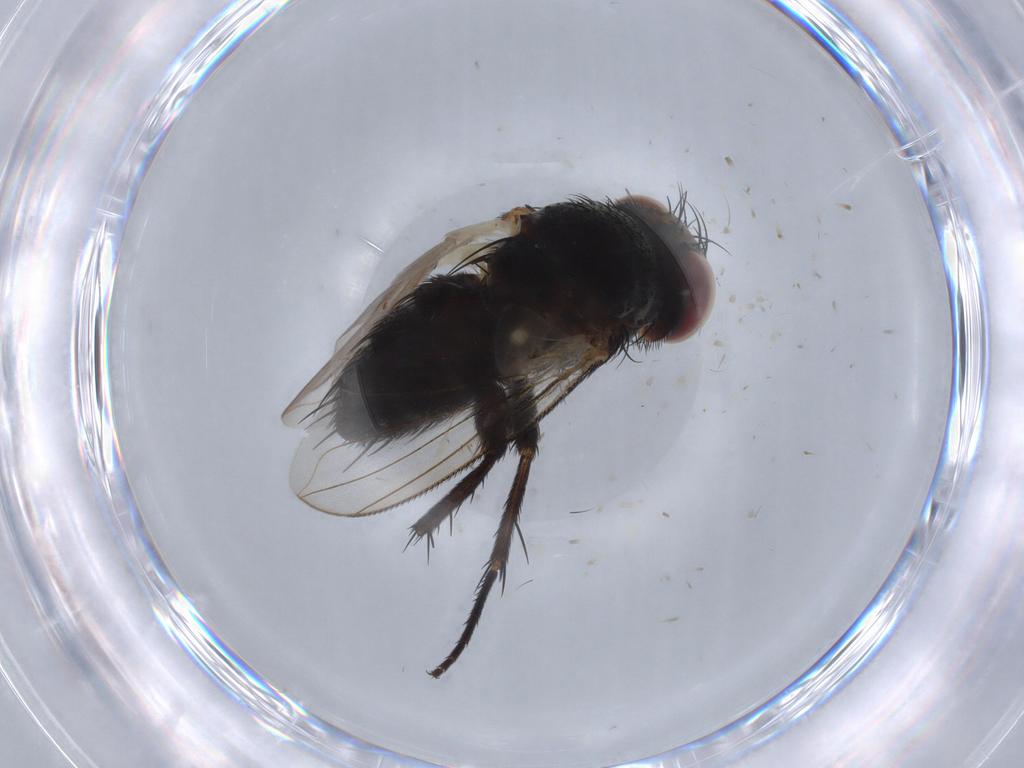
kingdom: Animalia
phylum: Arthropoda
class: Insecta
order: Diptera
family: Tachinidae
